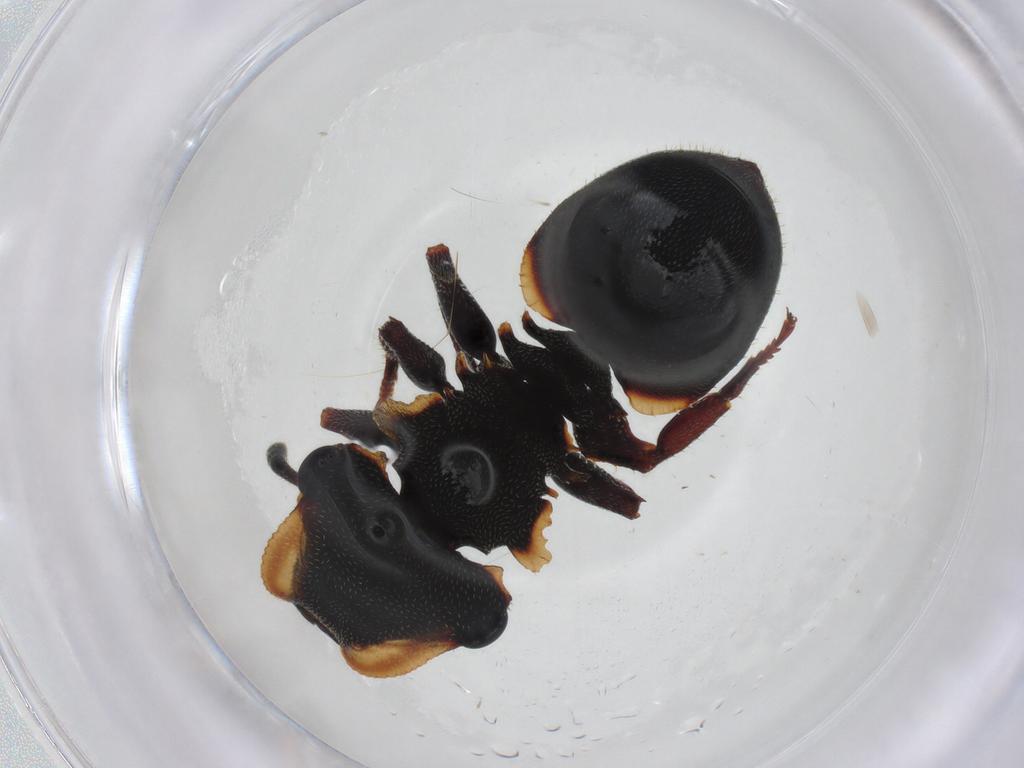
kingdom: Animalia
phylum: Arthropoda
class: Insecta
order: Hymenoptera
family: Formicidae
